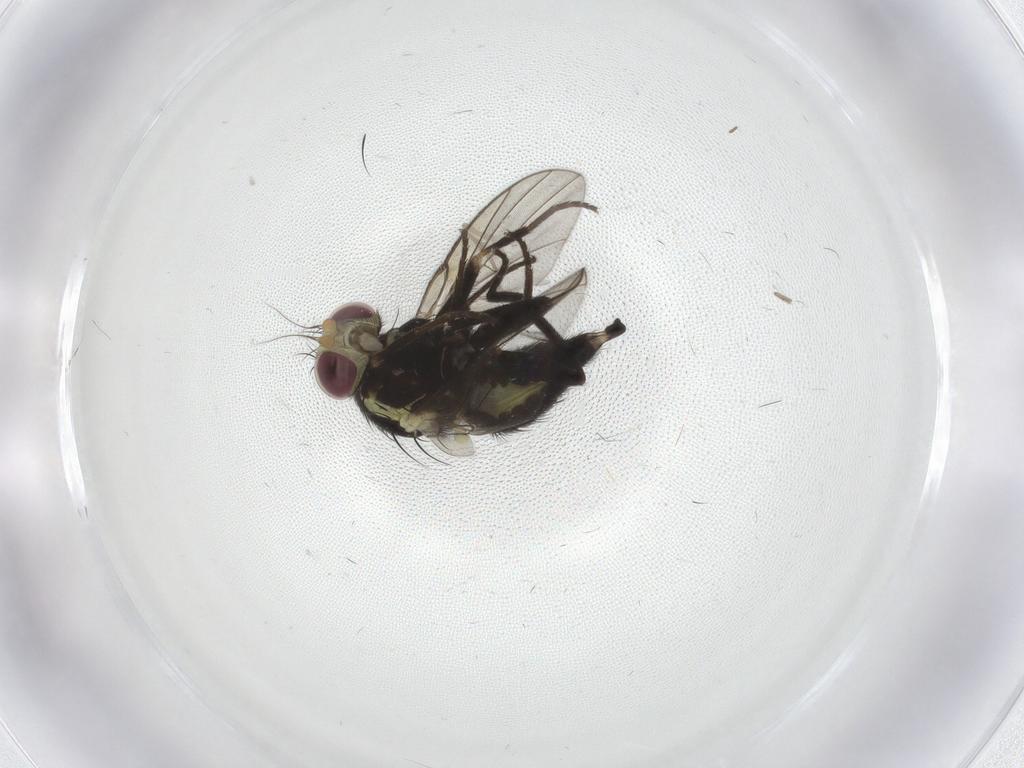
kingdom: Animalia
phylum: Arthropoda
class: Insecta
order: Diptera
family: Agromyzidae
